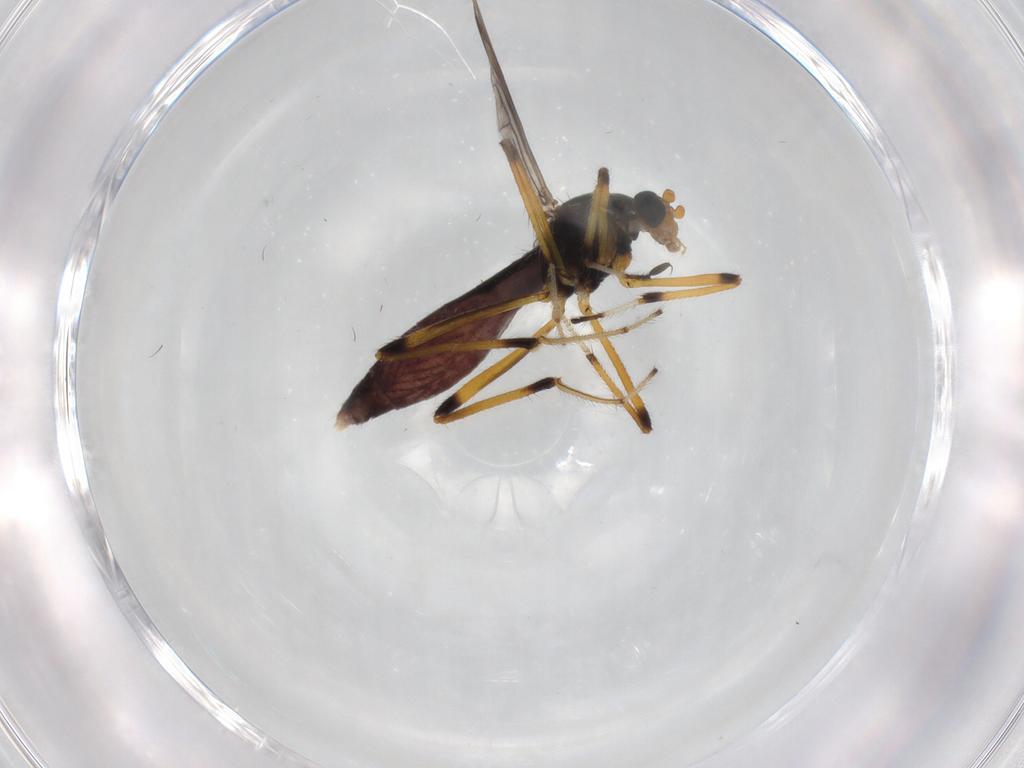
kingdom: Animalia
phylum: Arthropoda
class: Insecta
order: Diptera
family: Ceratopogonidae
